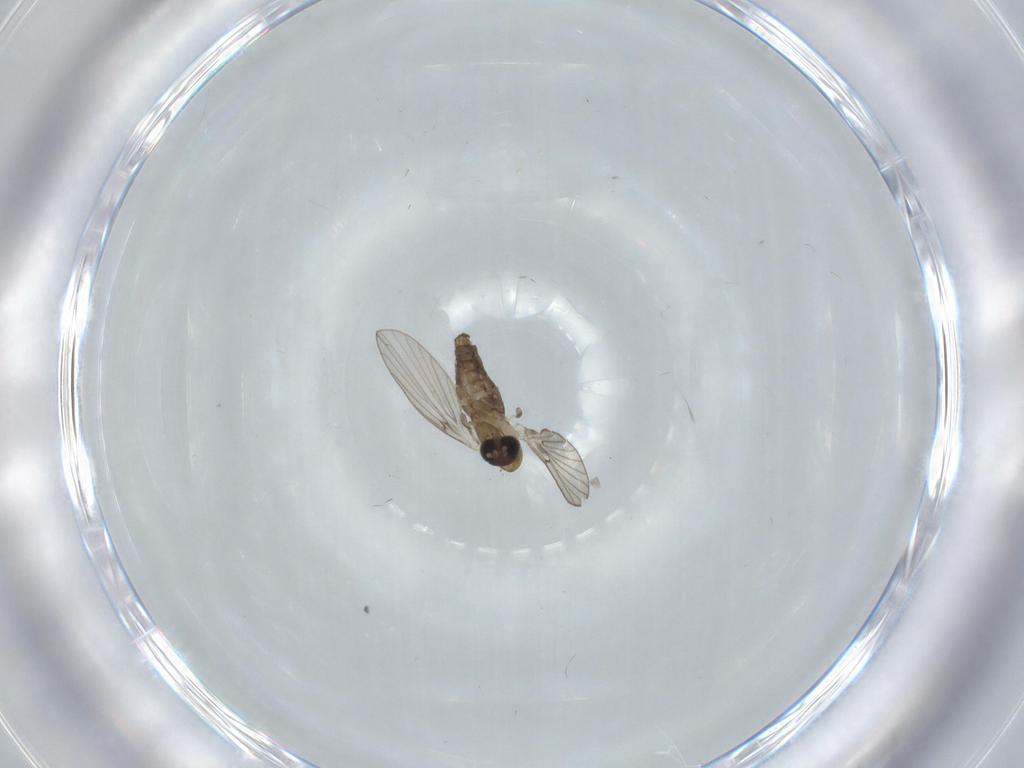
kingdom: Animalia
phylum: Arthropoda
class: Insecta
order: Diptera
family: Psychodidae
